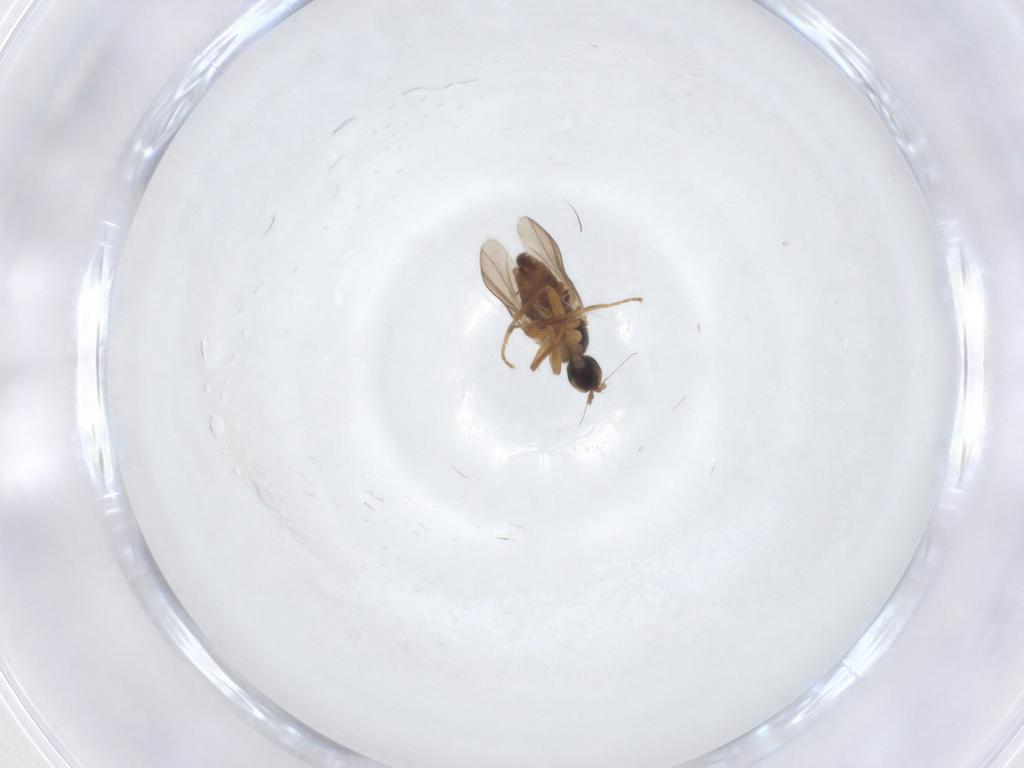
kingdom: Animalia
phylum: Arthropoda
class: Insecta
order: Diptera
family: Hybotidae
